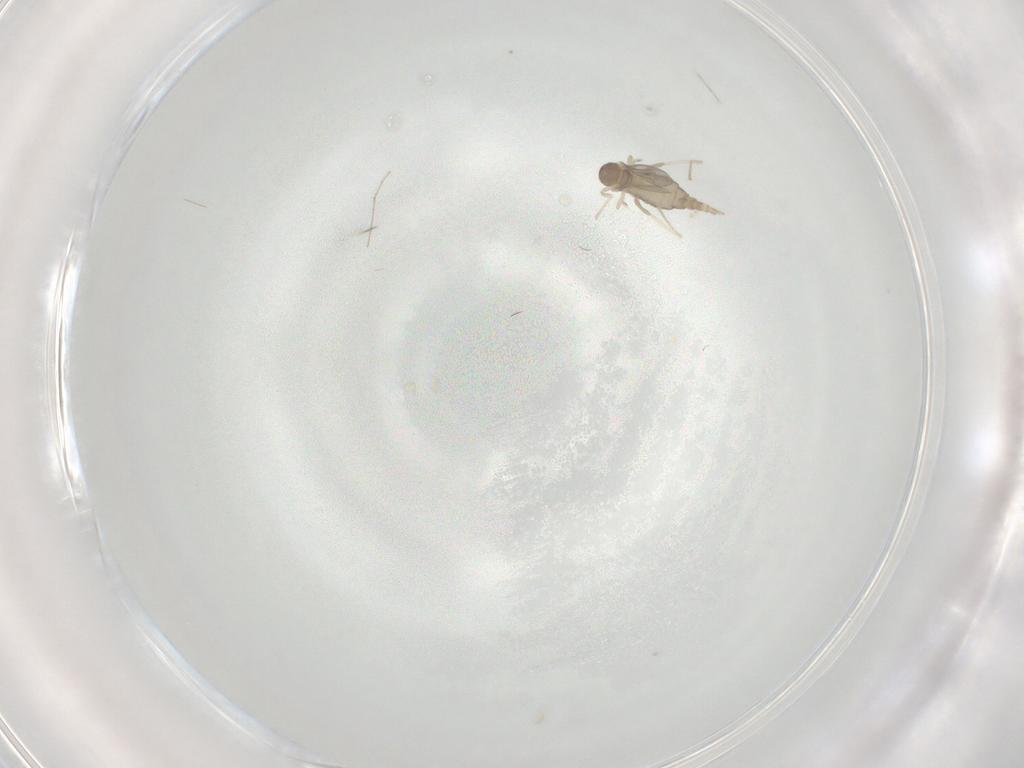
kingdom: Animalia
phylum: Arthropoda
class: Insecta
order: Diptera
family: Cecidomyiidae
